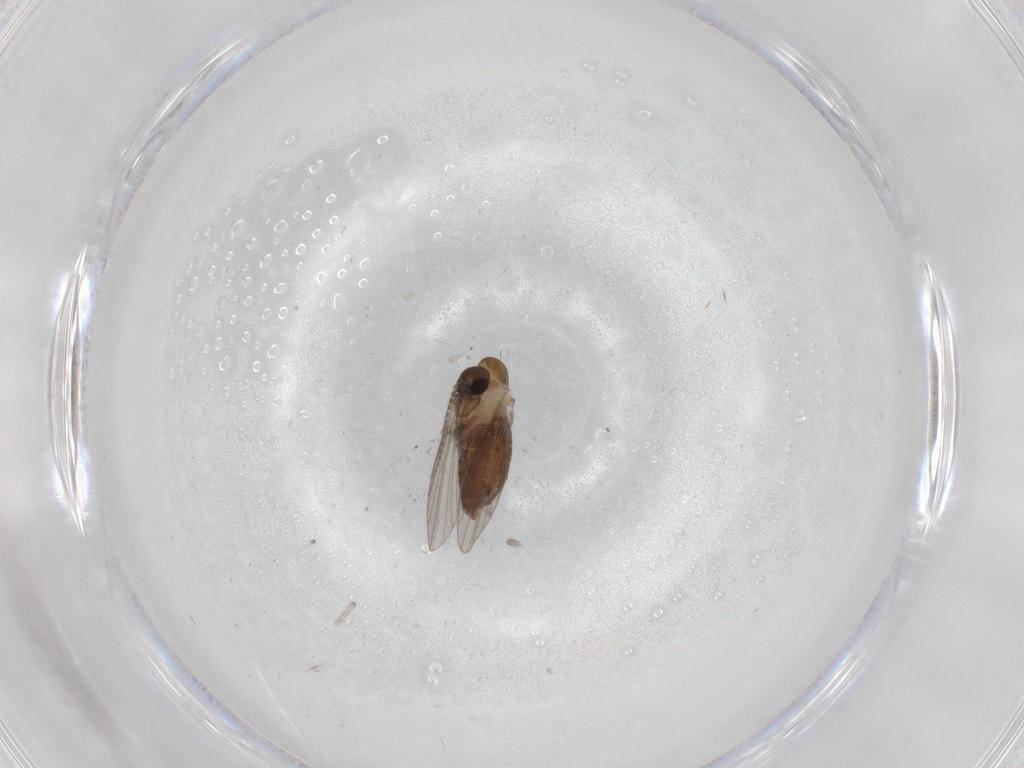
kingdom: Animalia
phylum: Arthropoda
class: Insecta
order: Diptera
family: Psychodidae
